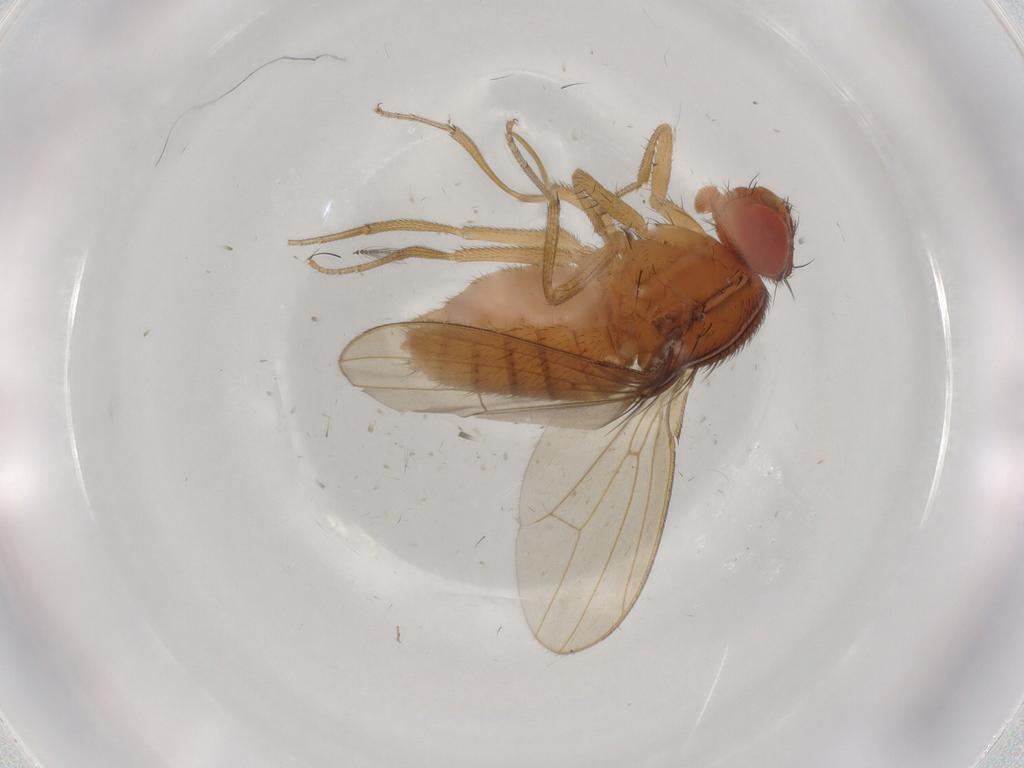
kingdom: Animalia
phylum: Arthropoda
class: Insecta
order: Diptera
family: Drosophilidae
